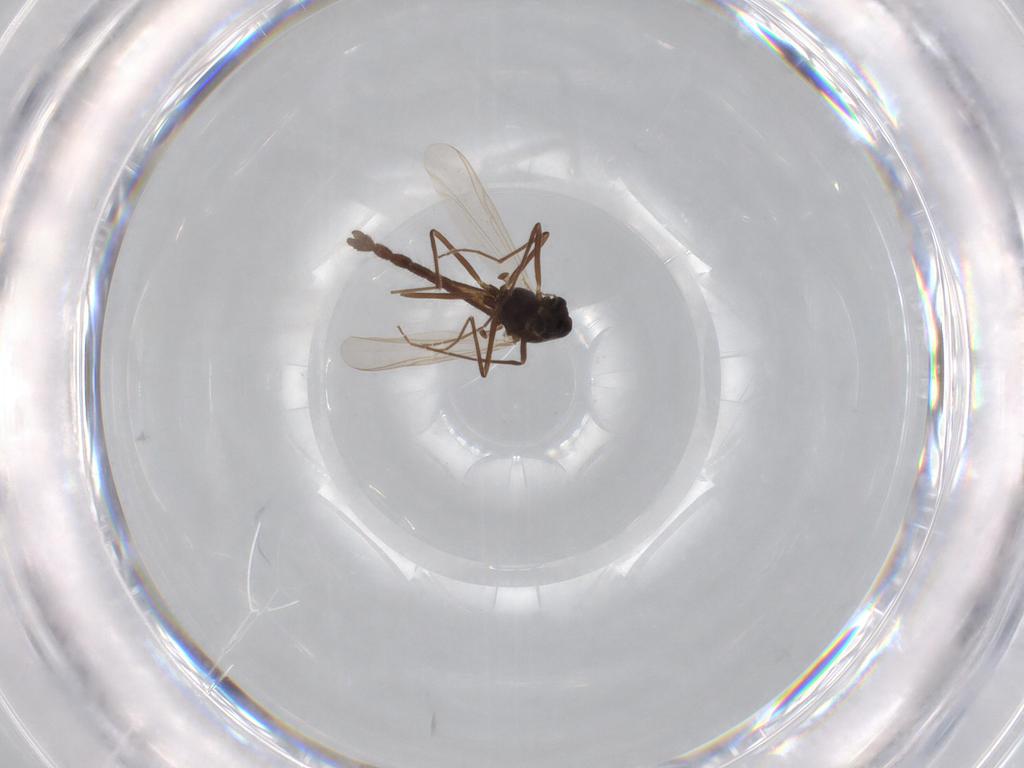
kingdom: Animalia
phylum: Arthropoda
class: Insecta
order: Diptera
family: Chironomidae
